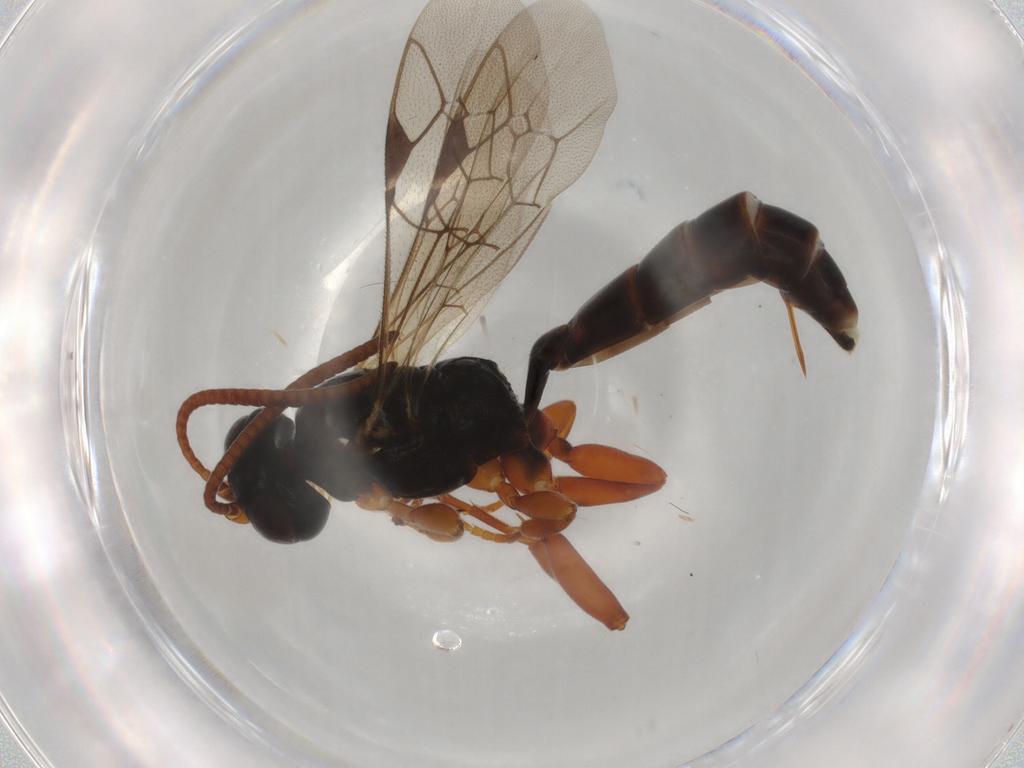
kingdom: Animalia
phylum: Arthropoda
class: Insecta
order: Hymenoptera
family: Ichneumonidae
